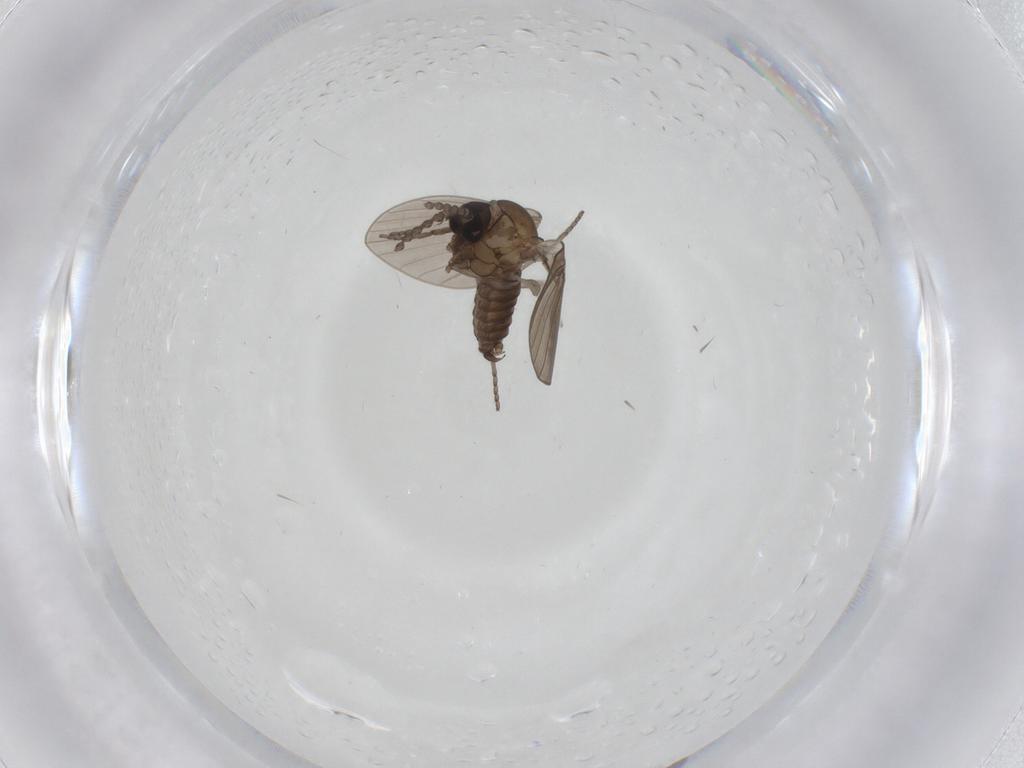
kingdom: Animalia
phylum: Arthropoda
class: Insecta
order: Diptera
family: Psychodidae
